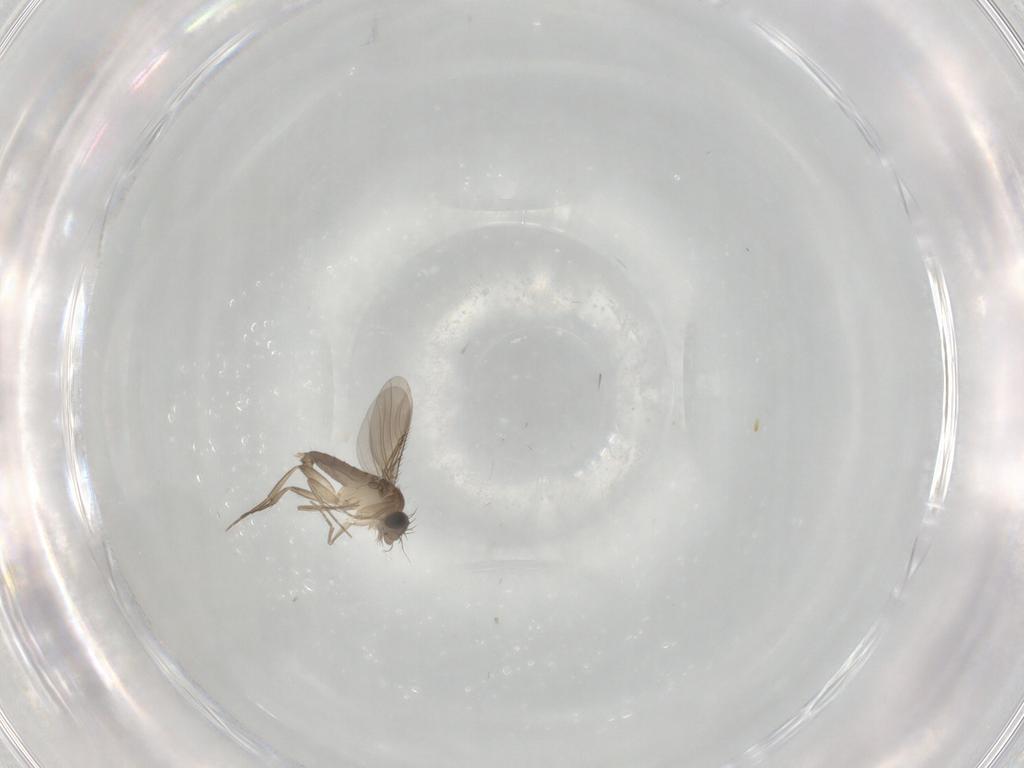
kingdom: Animalia
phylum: Arthropoda
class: Insecta
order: Diptera
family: Phoridae
